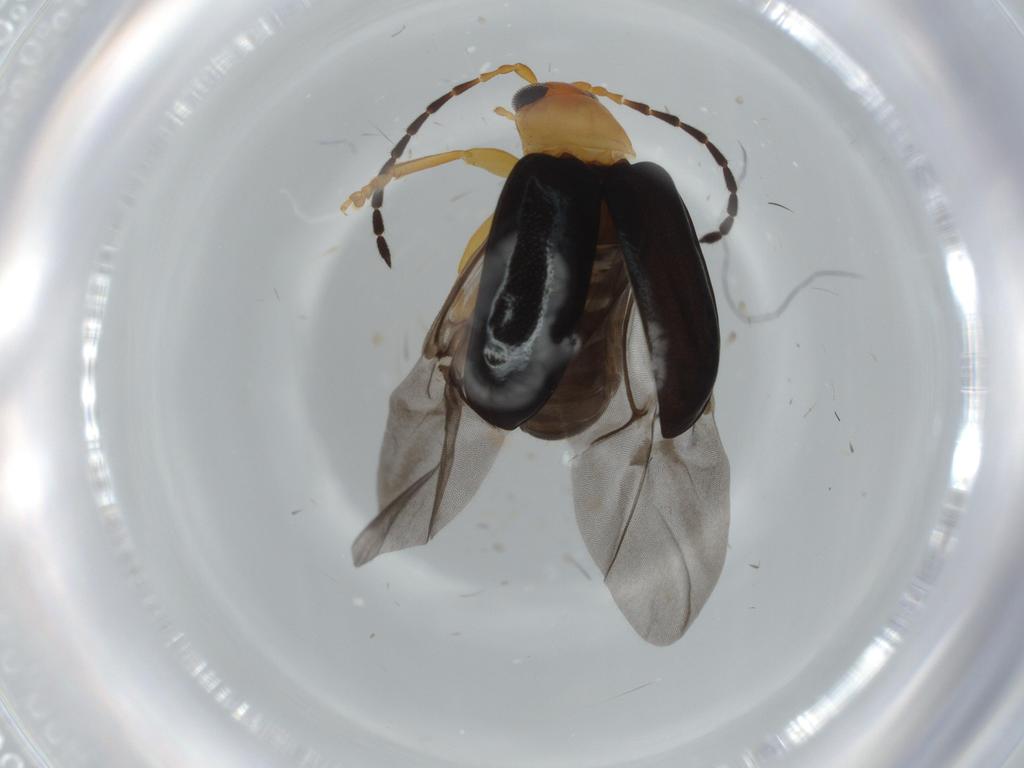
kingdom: Animalia
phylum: Arthropoda
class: Insecta
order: Coleoptera
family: Chrysomelidae
